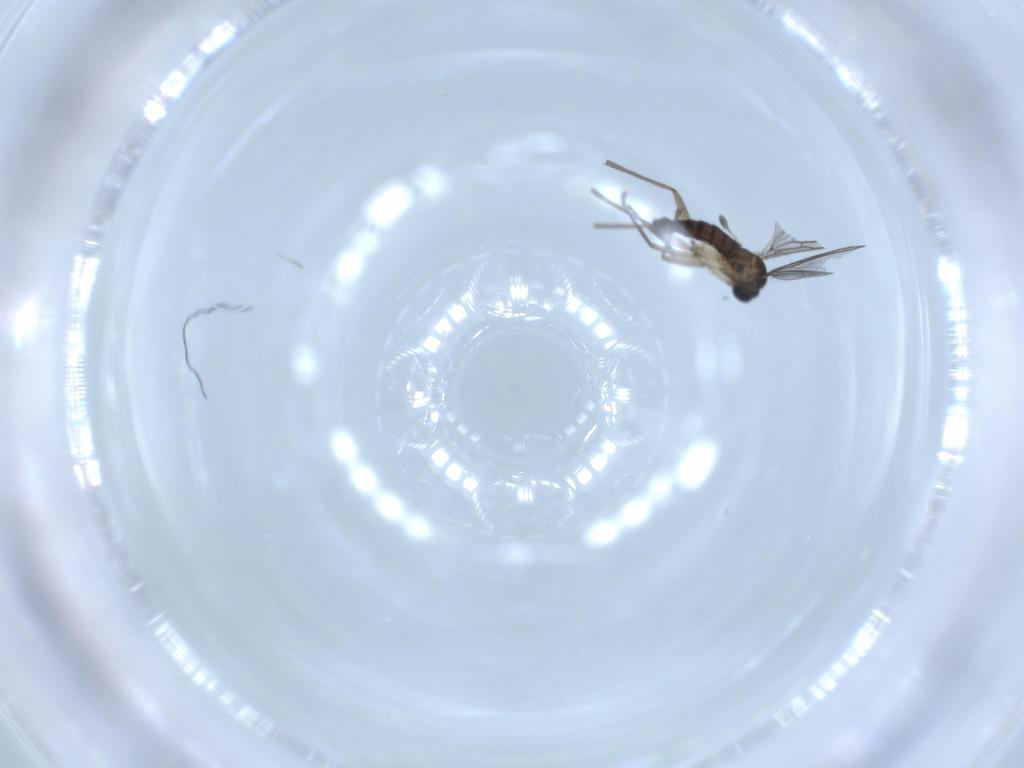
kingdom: Animalia
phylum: Arthropoda
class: Insecta
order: Diptera
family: Sciaridae
